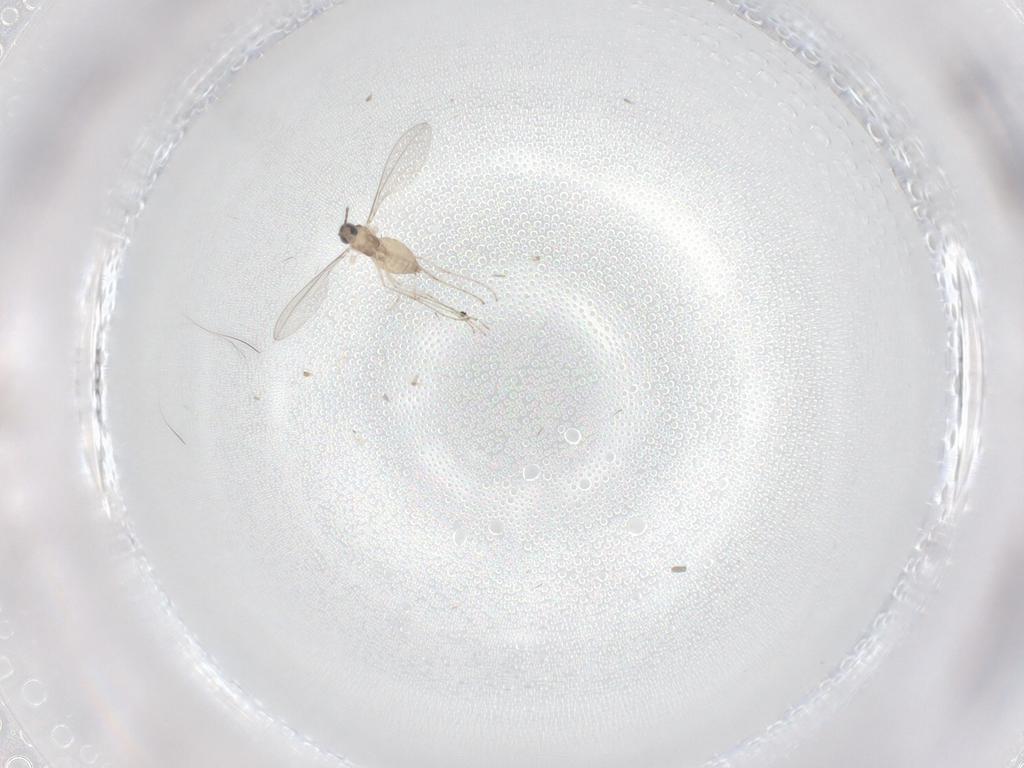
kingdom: Animalia
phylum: Arthropoda
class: Insecta
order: Diptera
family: Cecidomyiidae
